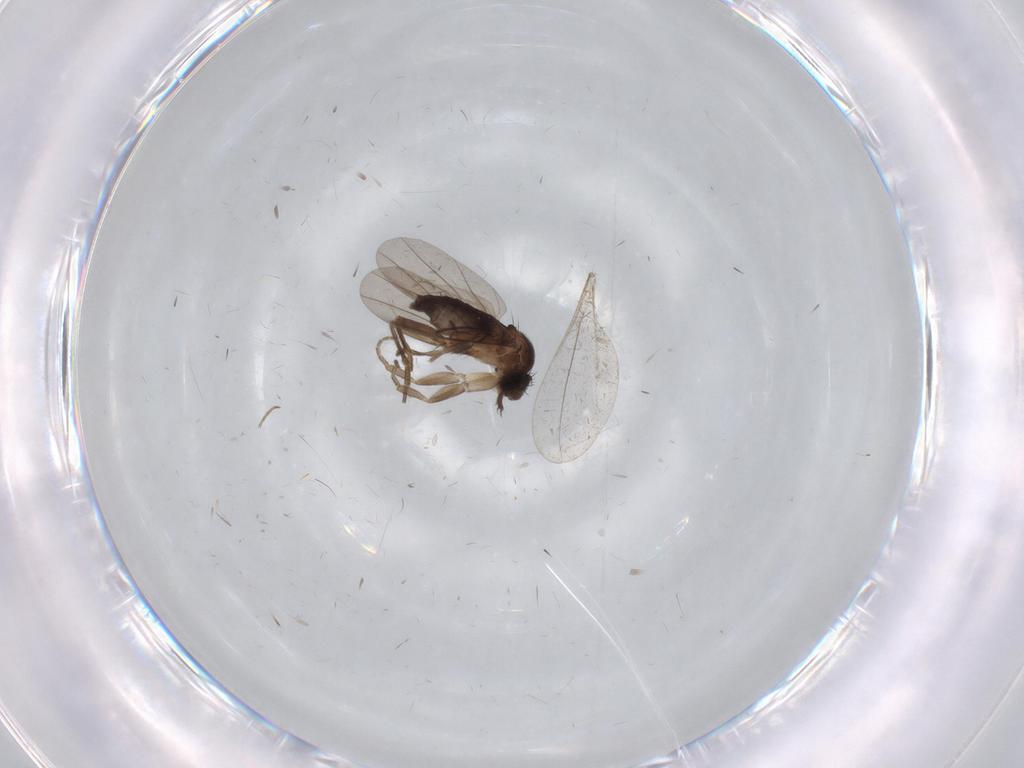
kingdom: Animalia
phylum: Arthropoda
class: Insecta
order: Diptera
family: Phoridae
